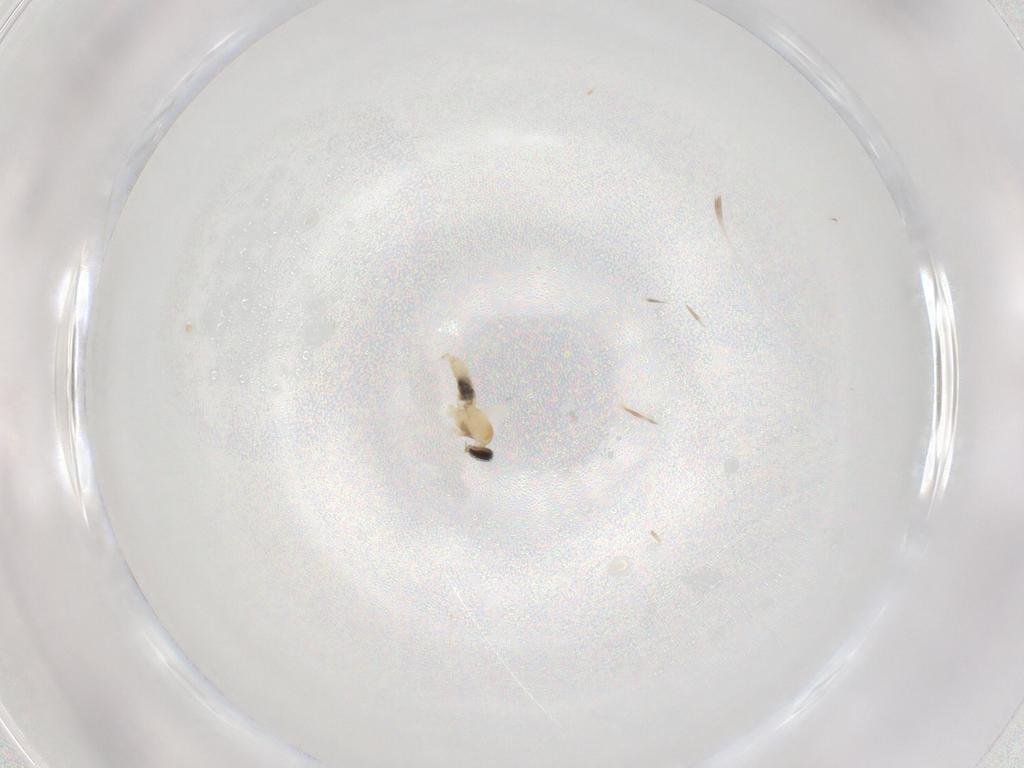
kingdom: Animalia
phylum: Arthropoda
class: Insecta
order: Diptera
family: Cecidomyiidae
